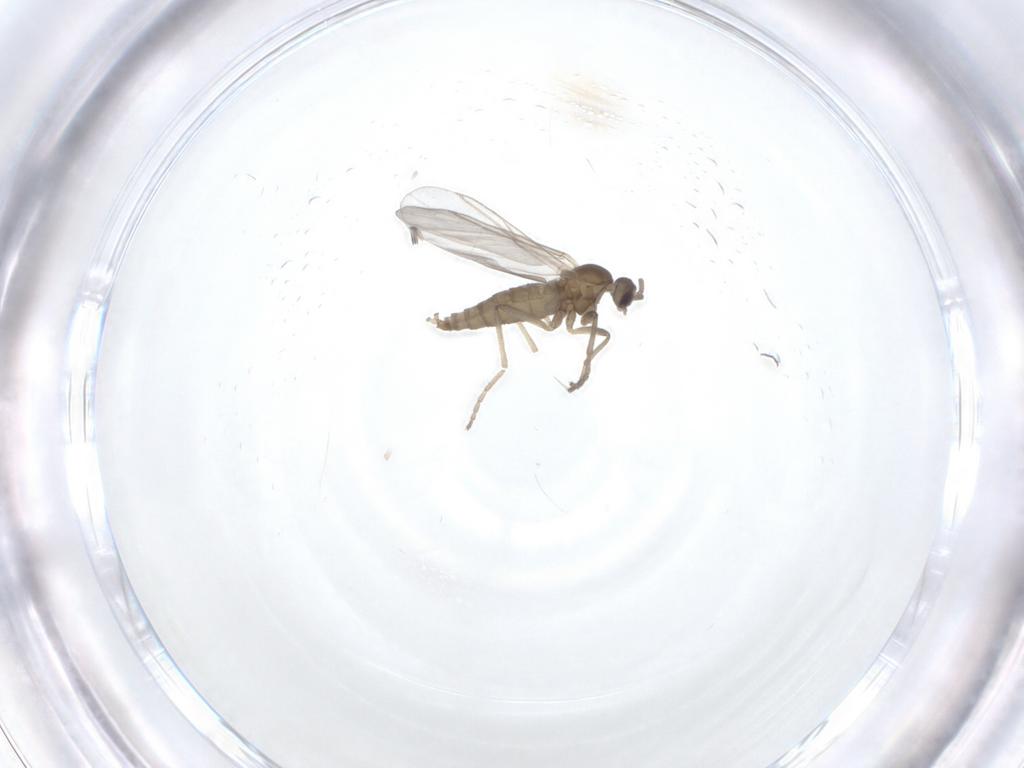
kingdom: Animalia
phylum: Arthropoda
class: Insecta
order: Diptera
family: Cecidomyiidae
